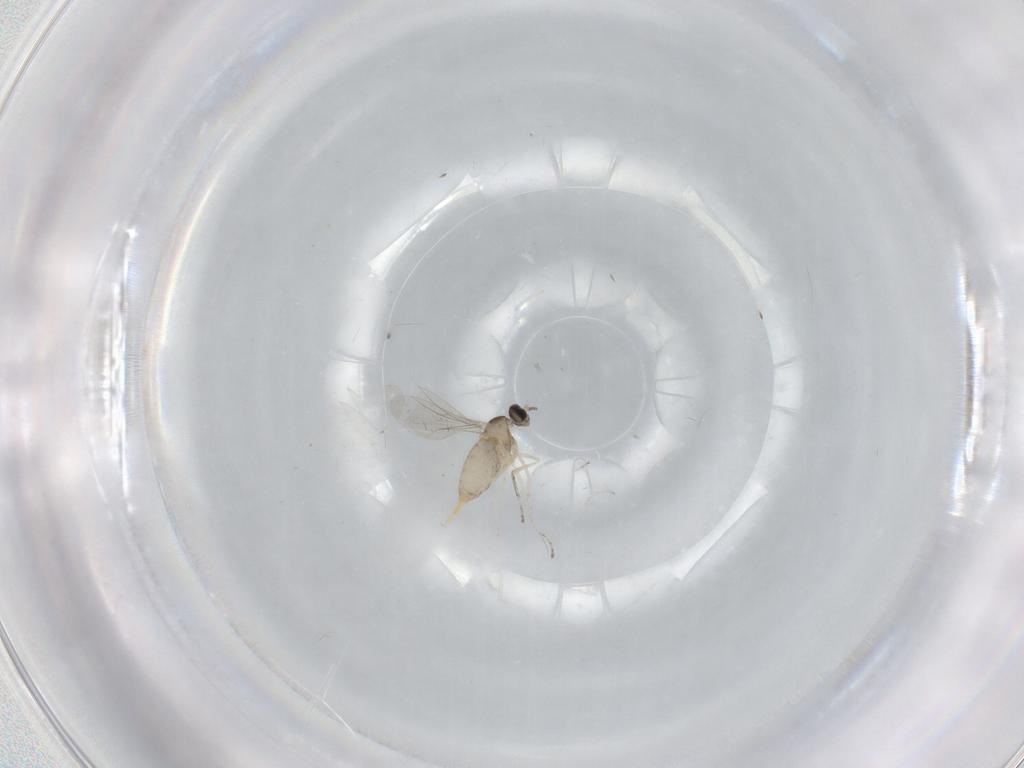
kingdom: Animalia
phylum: Arthropoda
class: Insecta
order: Diptera
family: Cecidomyiidae
